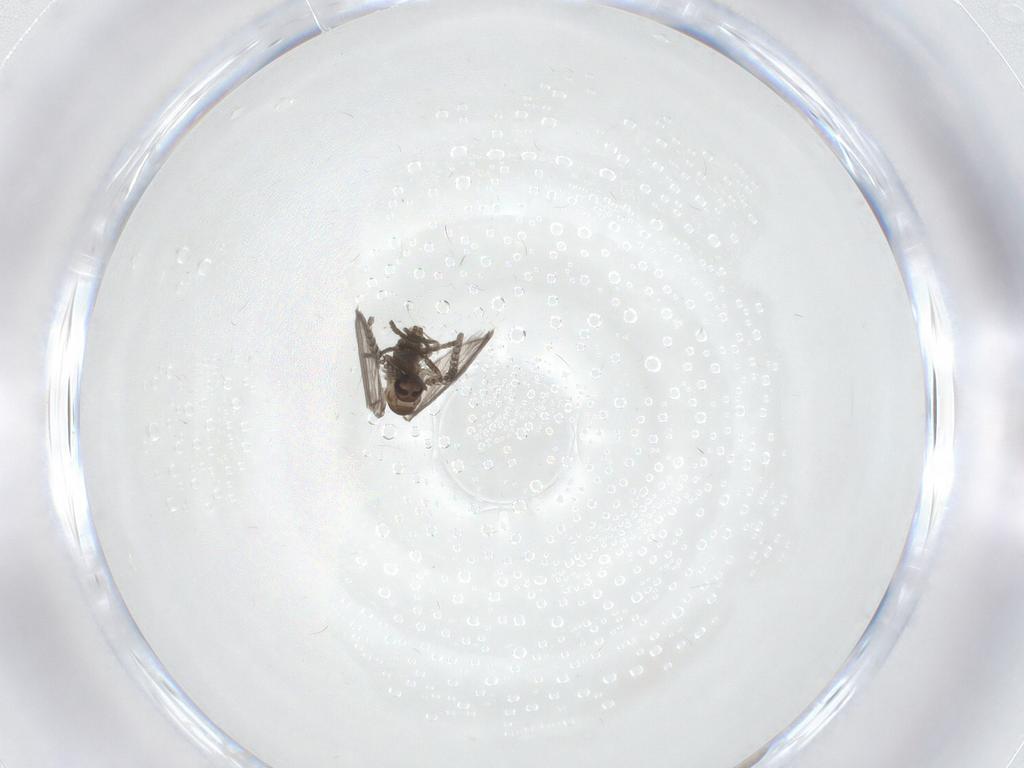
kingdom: Animalia
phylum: Arthropoda
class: Insecta
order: Diptera
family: Psychodidae
